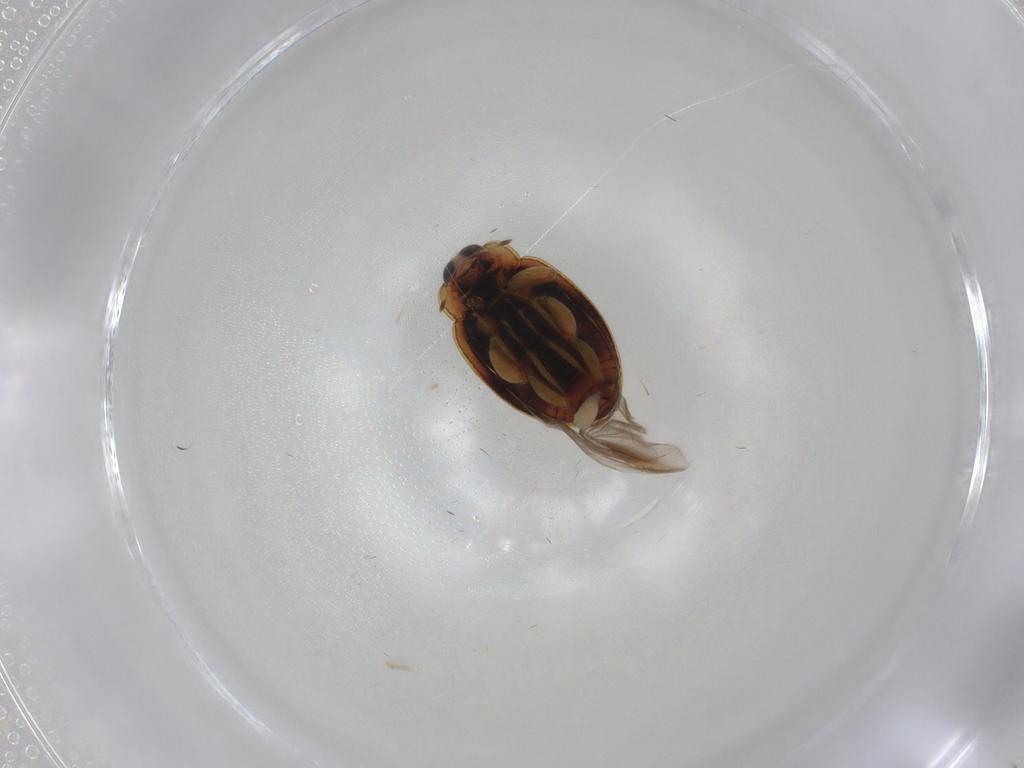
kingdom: Animalia
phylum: Arthropoda
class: Insecta
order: Coleoptera
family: Coccinellidae
